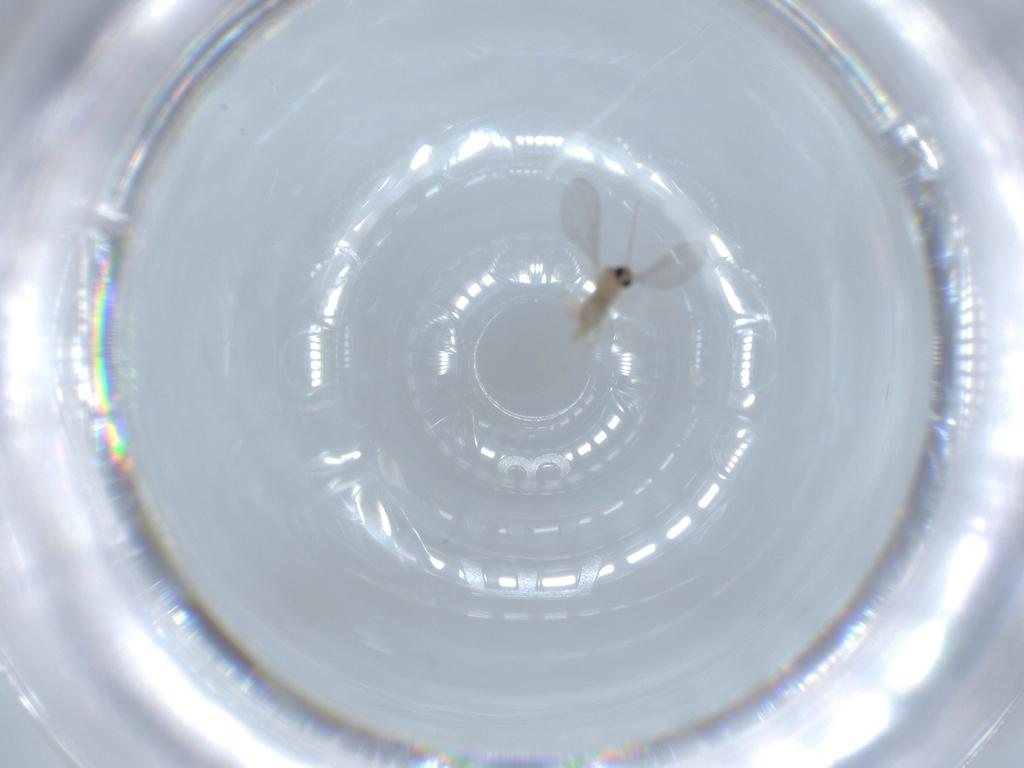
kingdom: Animalia
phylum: Arthropoda
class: Insecta
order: Diptera
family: Cecidomyiidae
